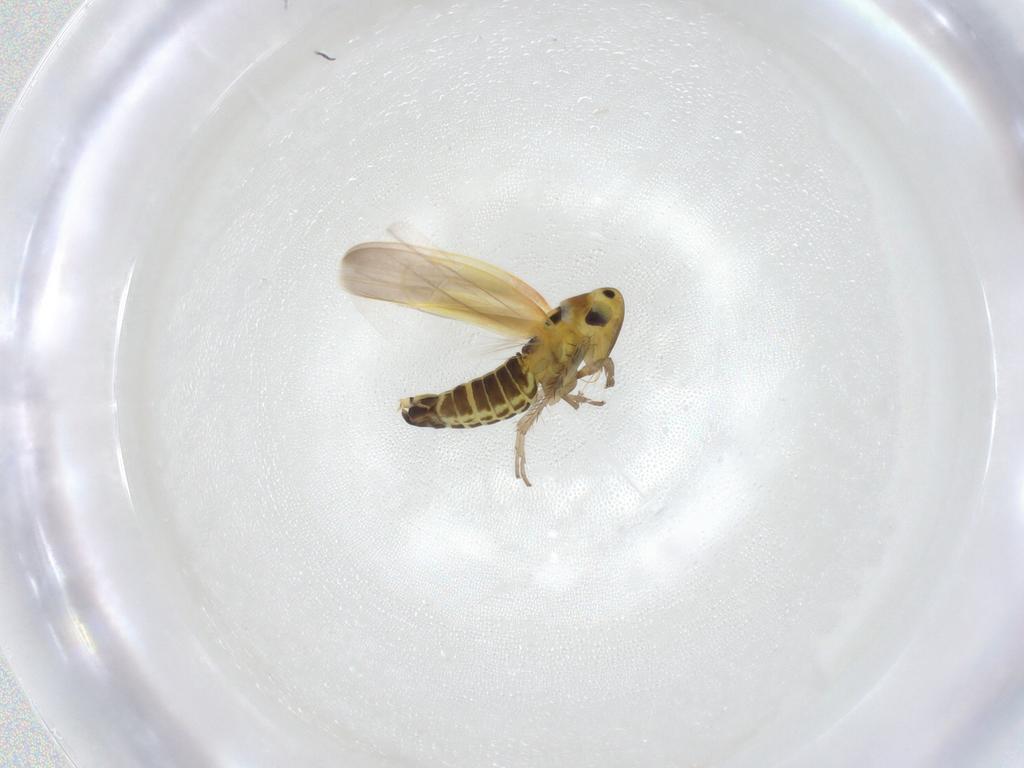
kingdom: Animalia
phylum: Arthropoda
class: Insecta
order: Hemiptera
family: Cicadellidae
